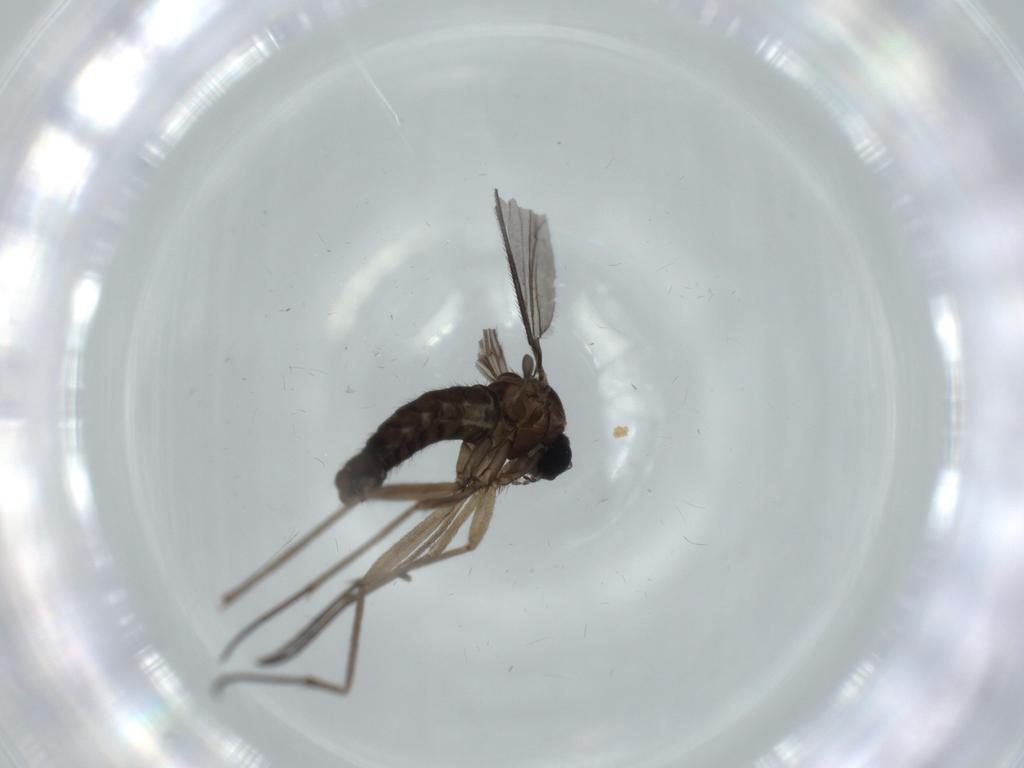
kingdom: Animalia
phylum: Arthropoda
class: Insecta
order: Diptera
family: Sciaridae
